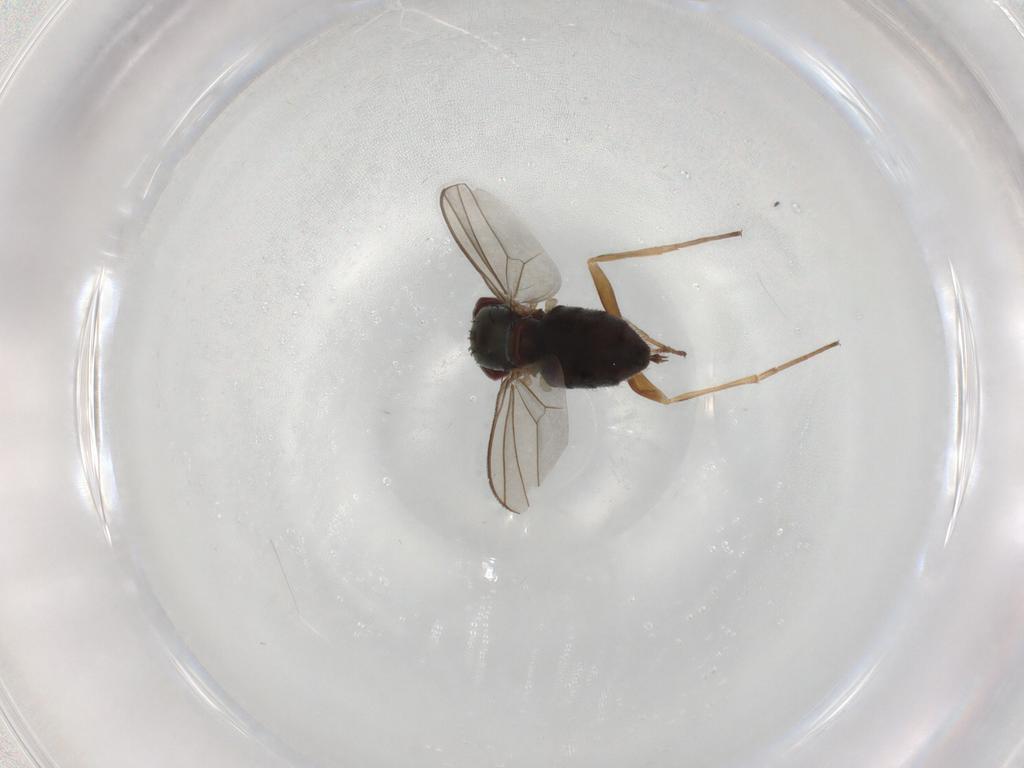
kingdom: Animalia
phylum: Arthropoda
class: Insecta
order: Diptera
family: Dolichopodidae
